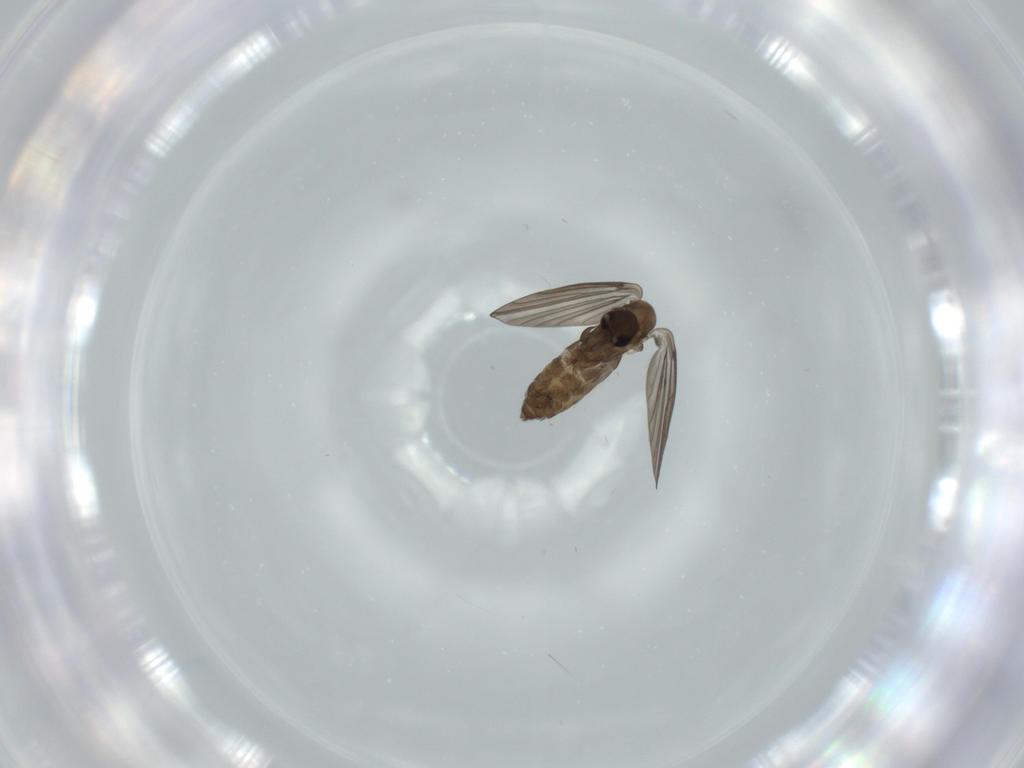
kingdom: Animalia
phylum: Arthropoda
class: Insecta
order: Diptera
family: Psychodidae
